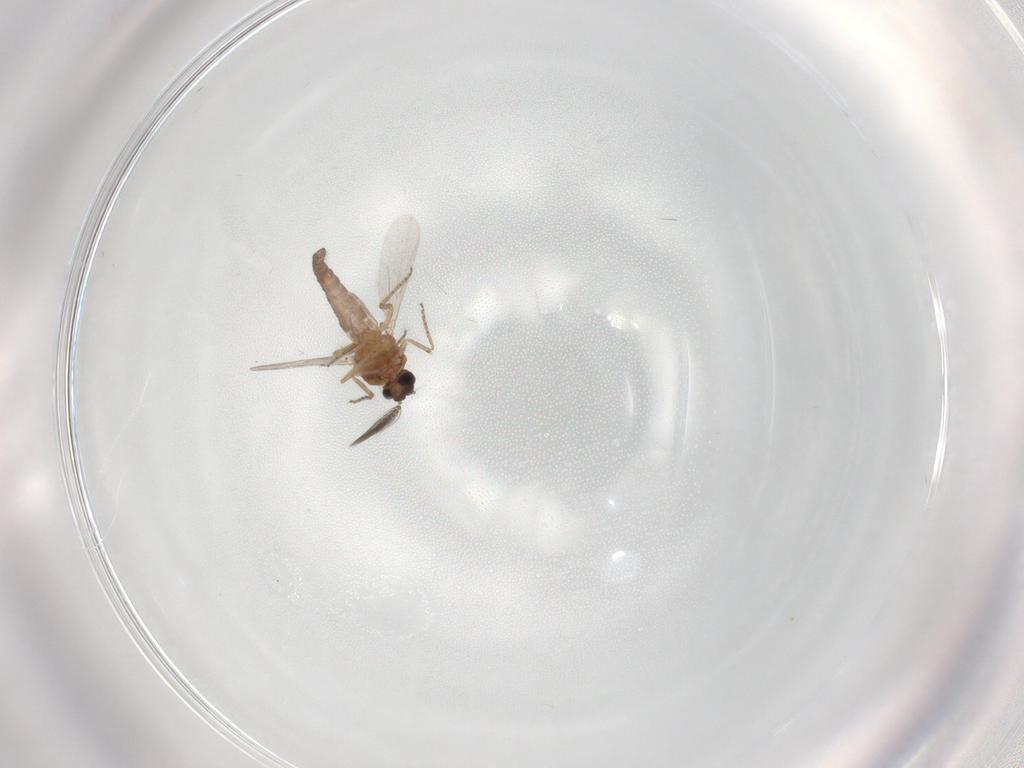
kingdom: Animalia
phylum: Arthropoda
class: Insecta
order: Diptera
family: Ceratopogonidae
